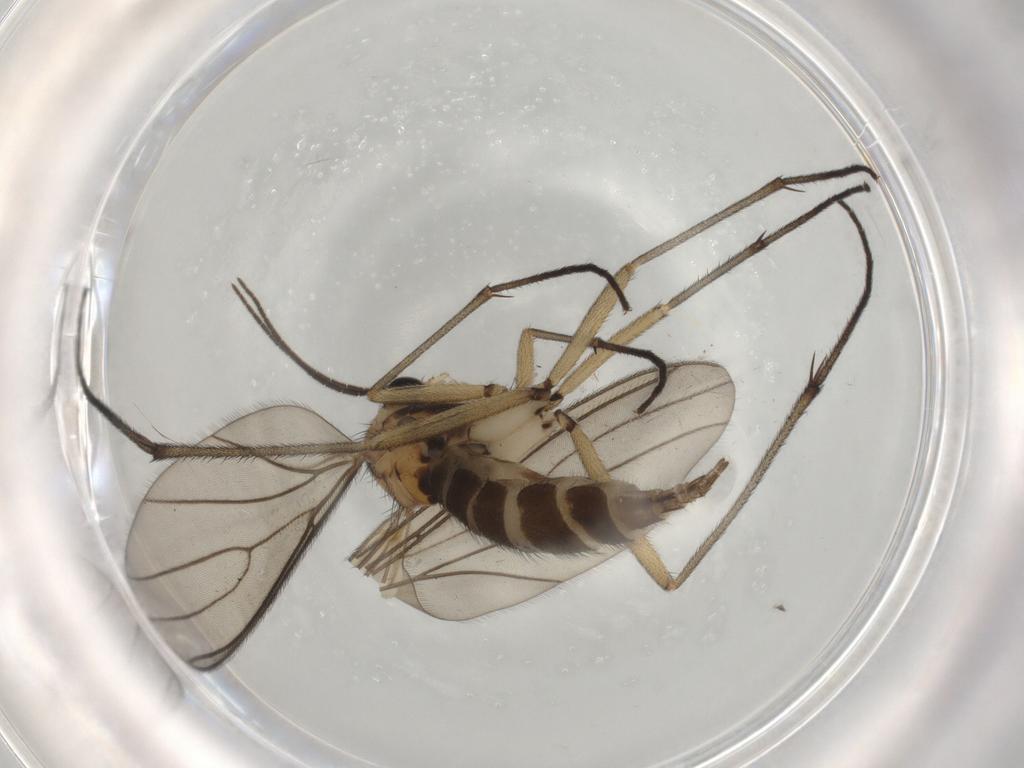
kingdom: Animalia
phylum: Arthropoda
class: Insecta
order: Diptera
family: Sciaridae
